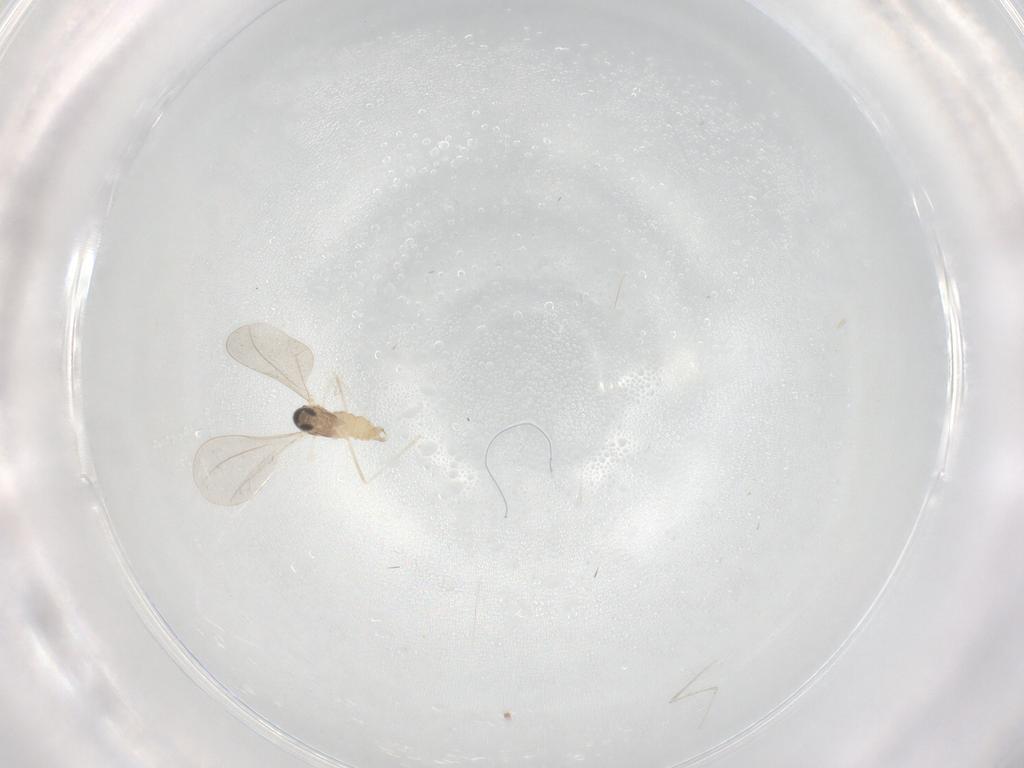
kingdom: Animalia
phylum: Arthropoda
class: Insecta
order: Diptera
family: Cecidomyiidae
